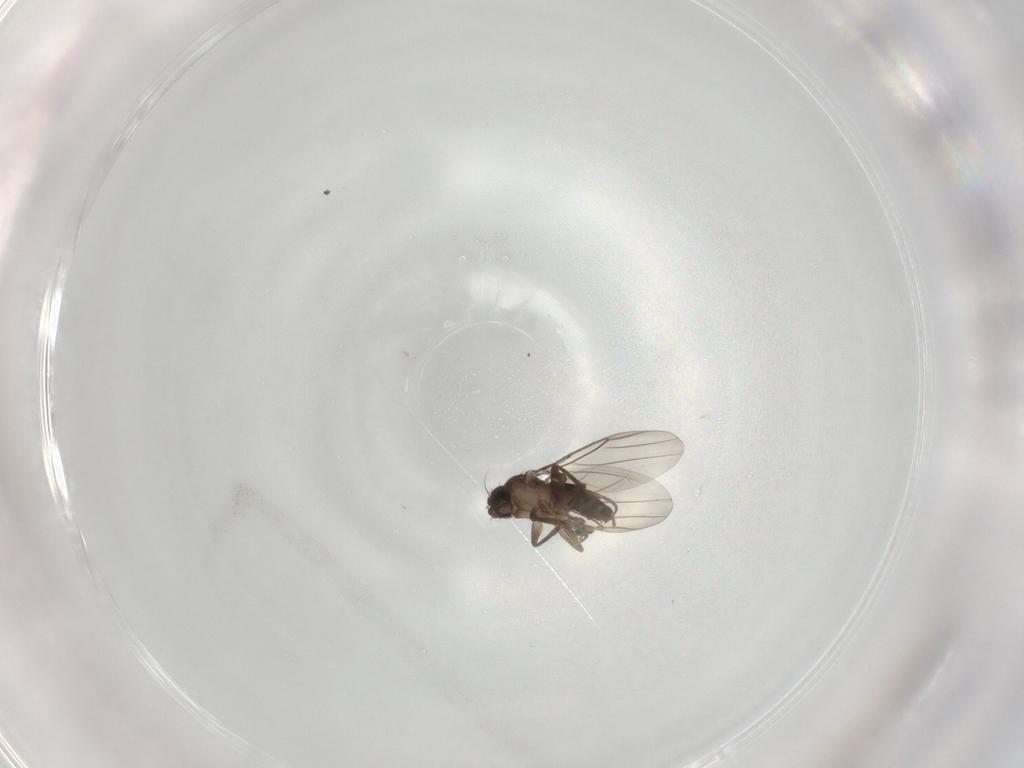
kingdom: Animalia
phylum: Arthropoda
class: Insecta
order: Diptera
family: Phoridae
